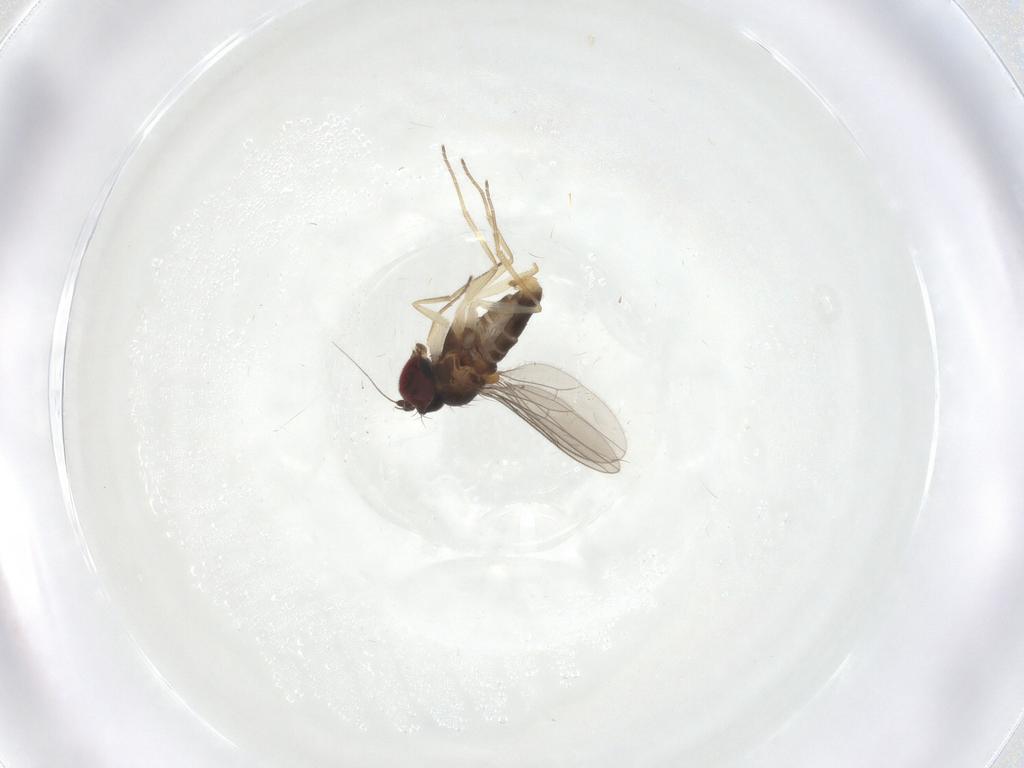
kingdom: Animalia
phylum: Arthropoda
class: Insecta
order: Diptera
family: Dolichopodidae
